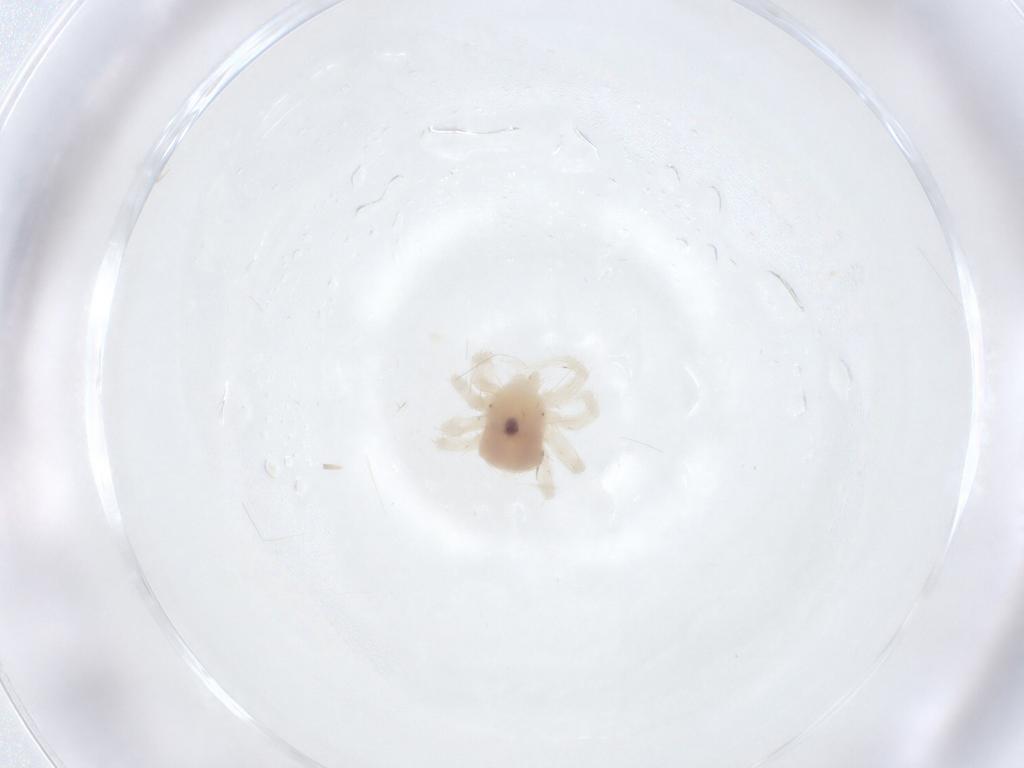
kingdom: Animalia
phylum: Arthropoda
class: Arachnida
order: Trombidiformes
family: Anystidae
